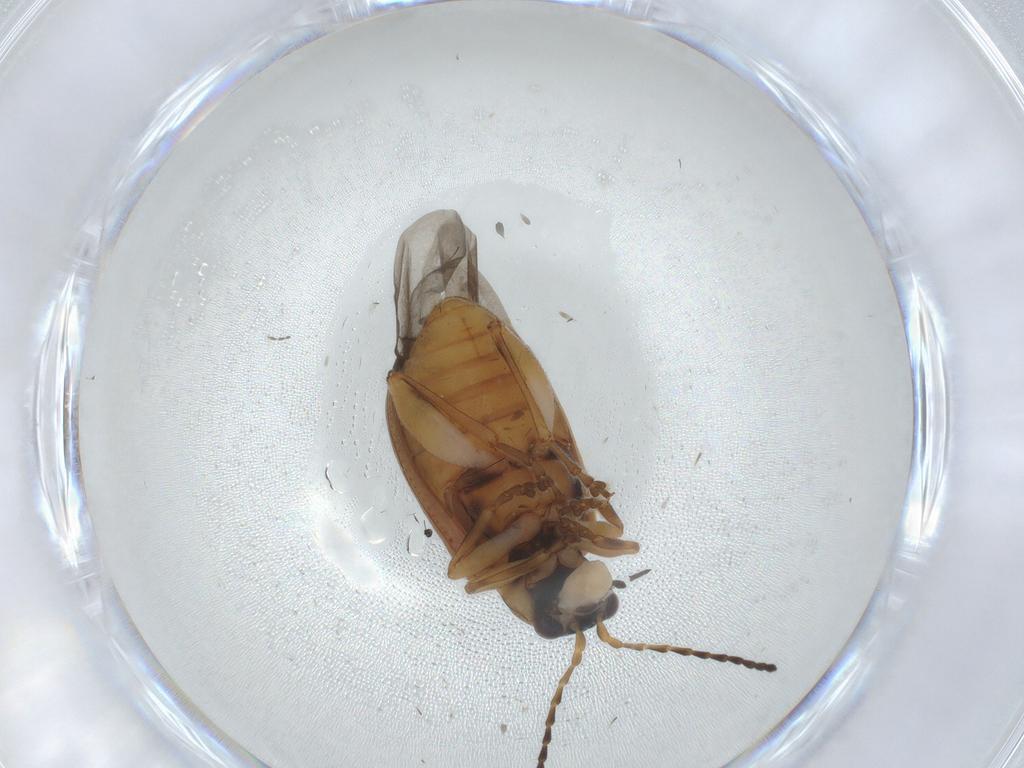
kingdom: Animalia
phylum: Arthropoda
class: Insecta
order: Coleoptera
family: Chrysomelidae
